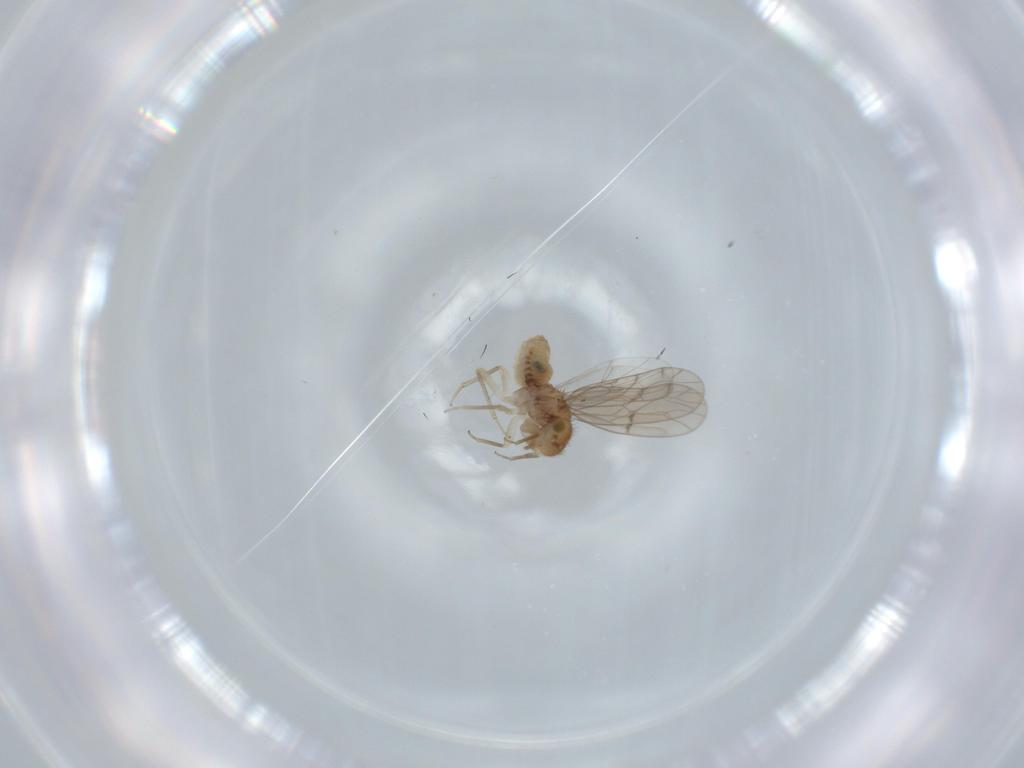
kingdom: Animalia
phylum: Arthropoda
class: Insecta
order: Psocodea
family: Ectopsocidae
